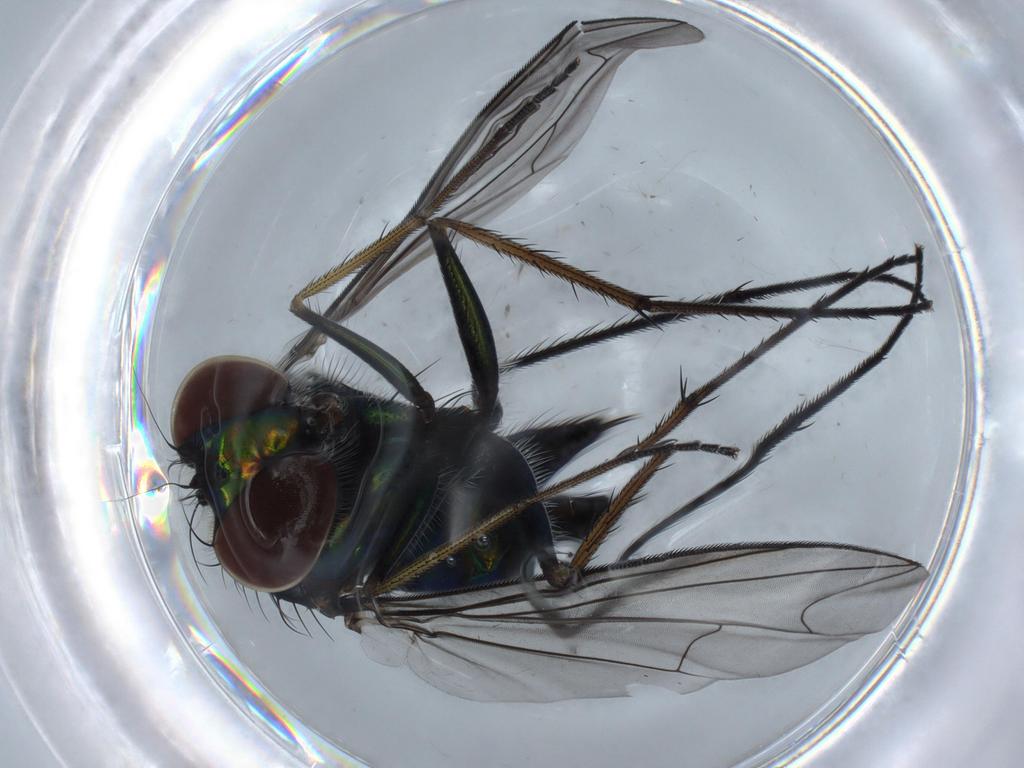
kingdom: Animalia
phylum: Arthropoda
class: Insecta
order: Diptera
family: Dolichopodidae
